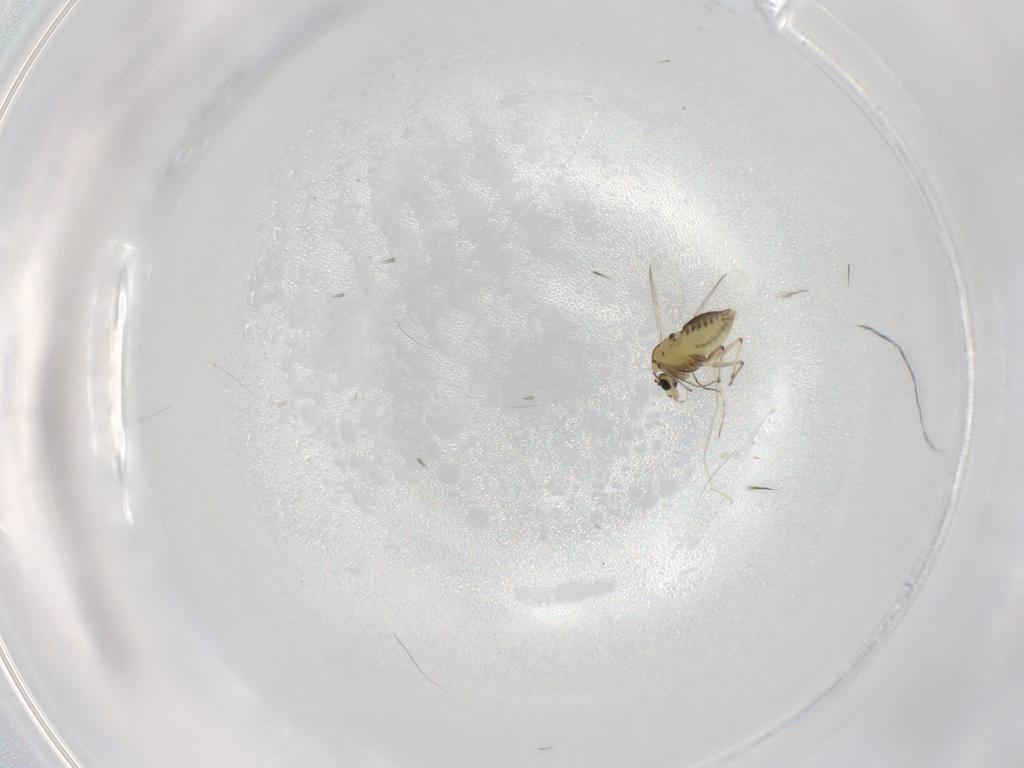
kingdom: Animalia
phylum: Arthropoda
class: Insecta
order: Diptera
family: Chironomidae
